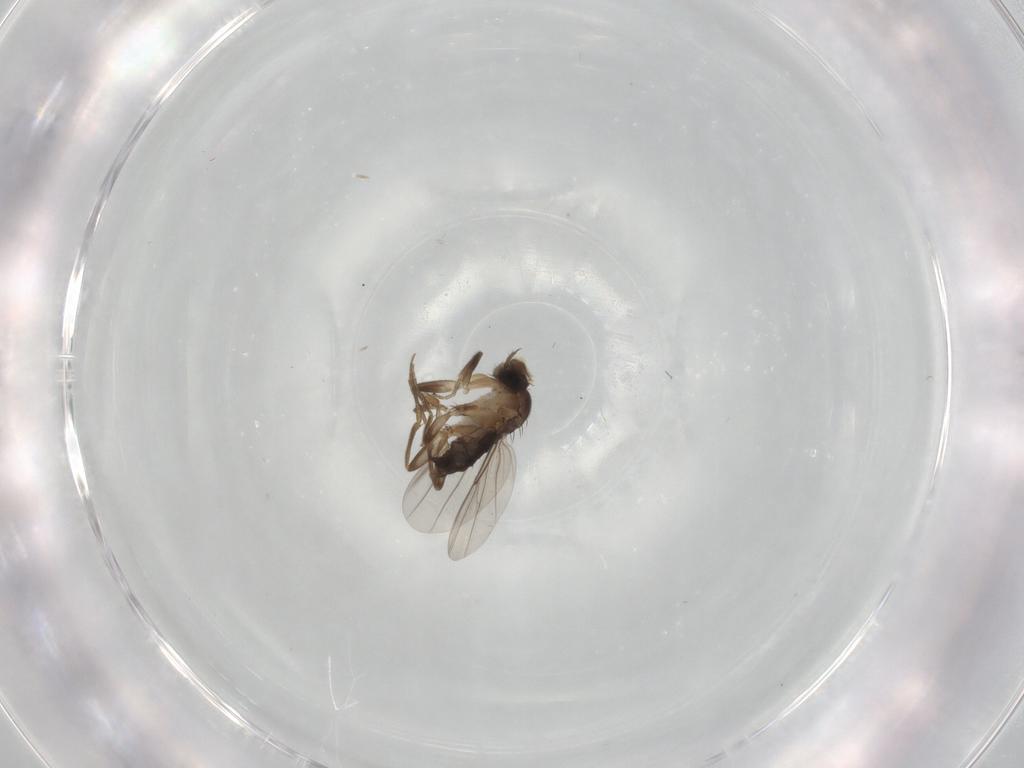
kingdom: Animalia
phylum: Arthropoda
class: Insecta
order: Diptera
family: Phoridae
